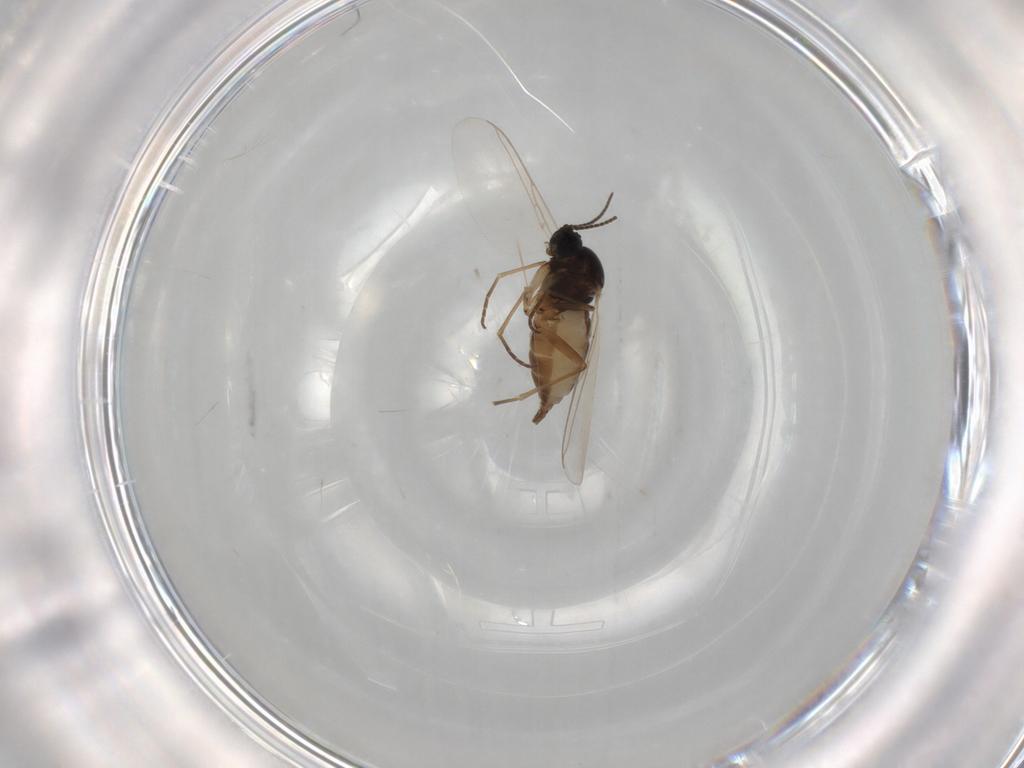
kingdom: Animalia
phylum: Arthropoda
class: Insecta
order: Diptera
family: Sciaridae
